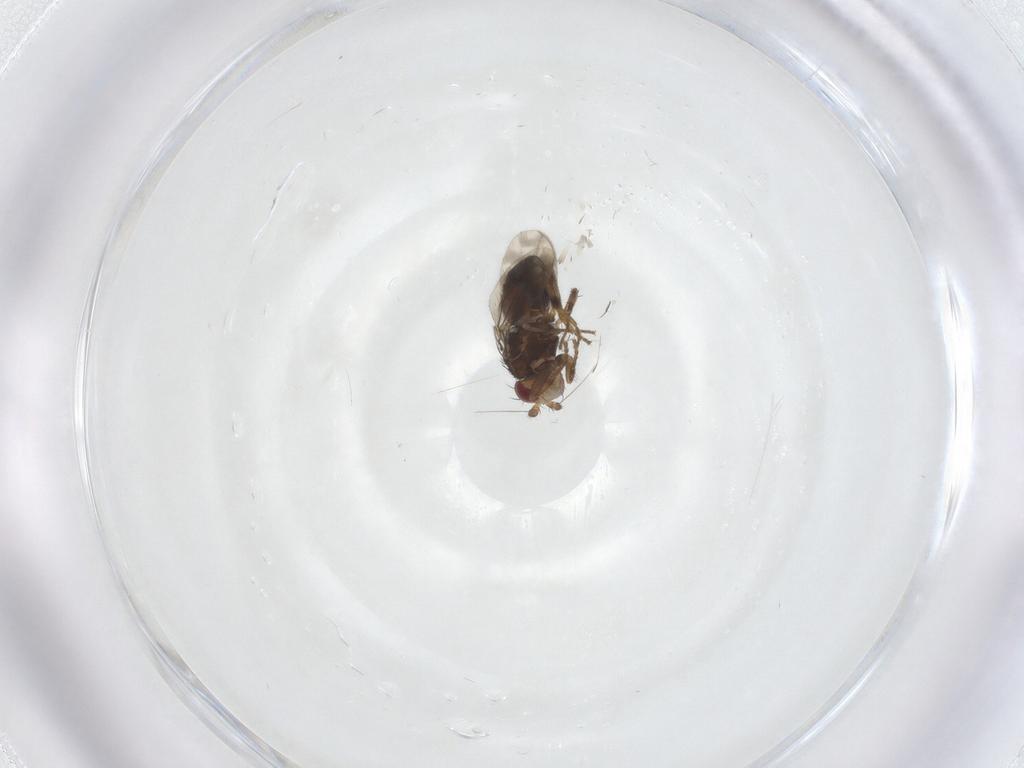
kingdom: Animalia
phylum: Arthropoda
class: Insecta
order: Diptera
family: Sphaeroceridae
